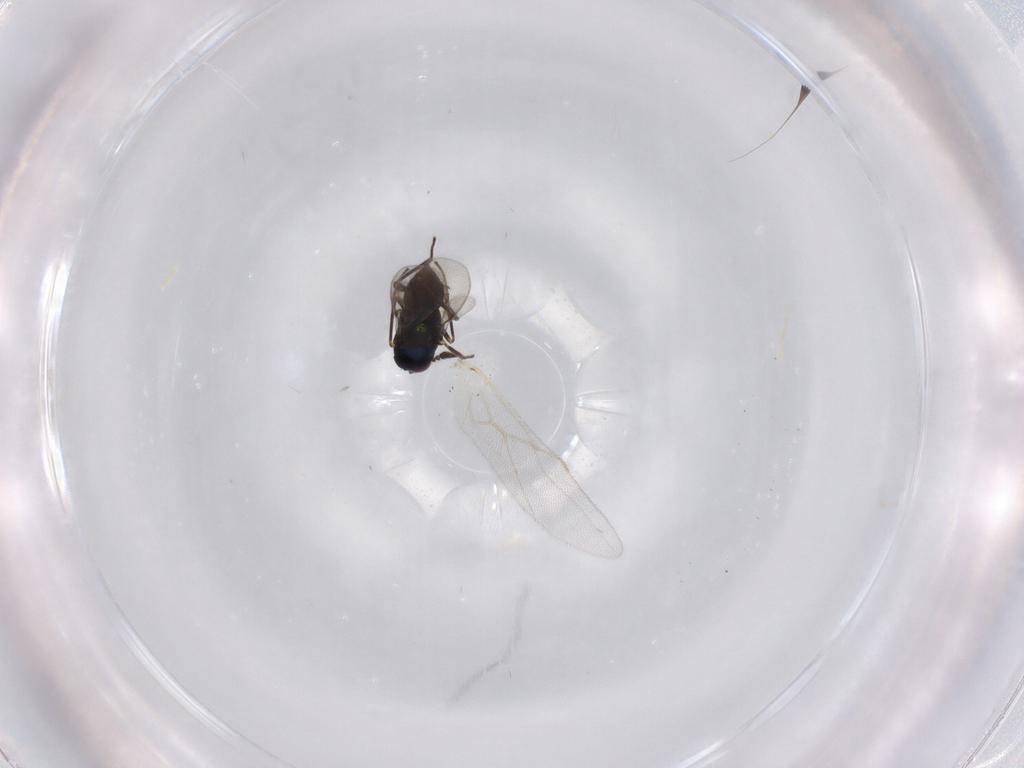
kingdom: Animalia
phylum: Arthropoda
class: Insecta
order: Hymenoptera
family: Braconidae
